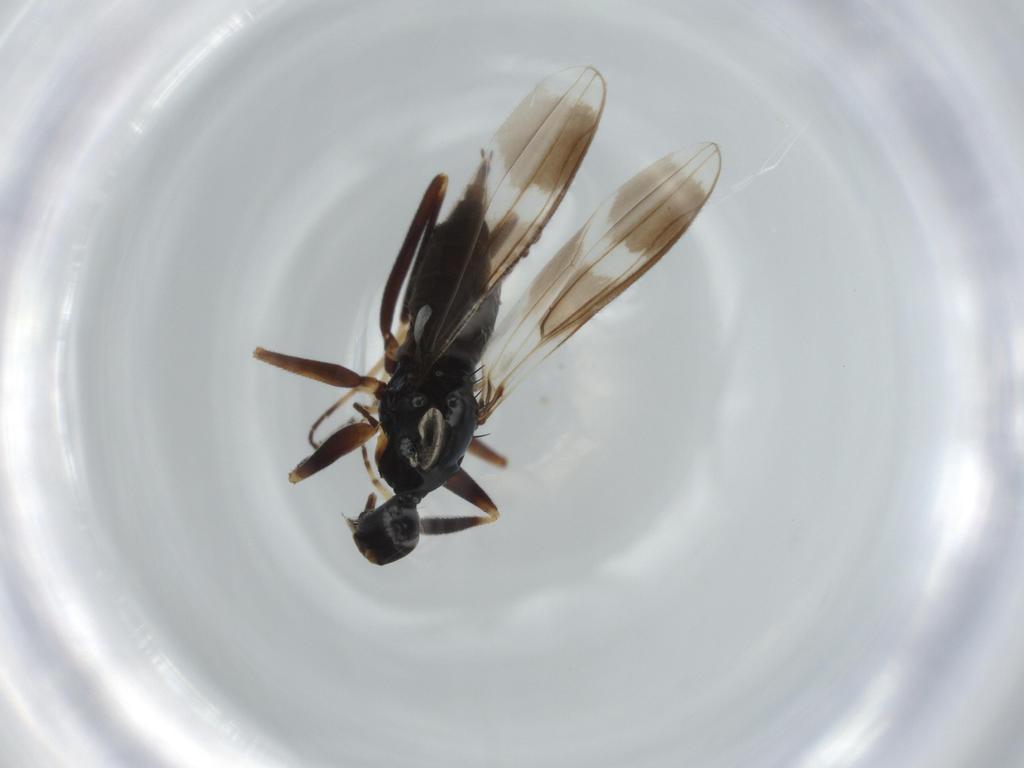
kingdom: Animalia
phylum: Arthropoda
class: Insecta
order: Diptera
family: Hybotidae
